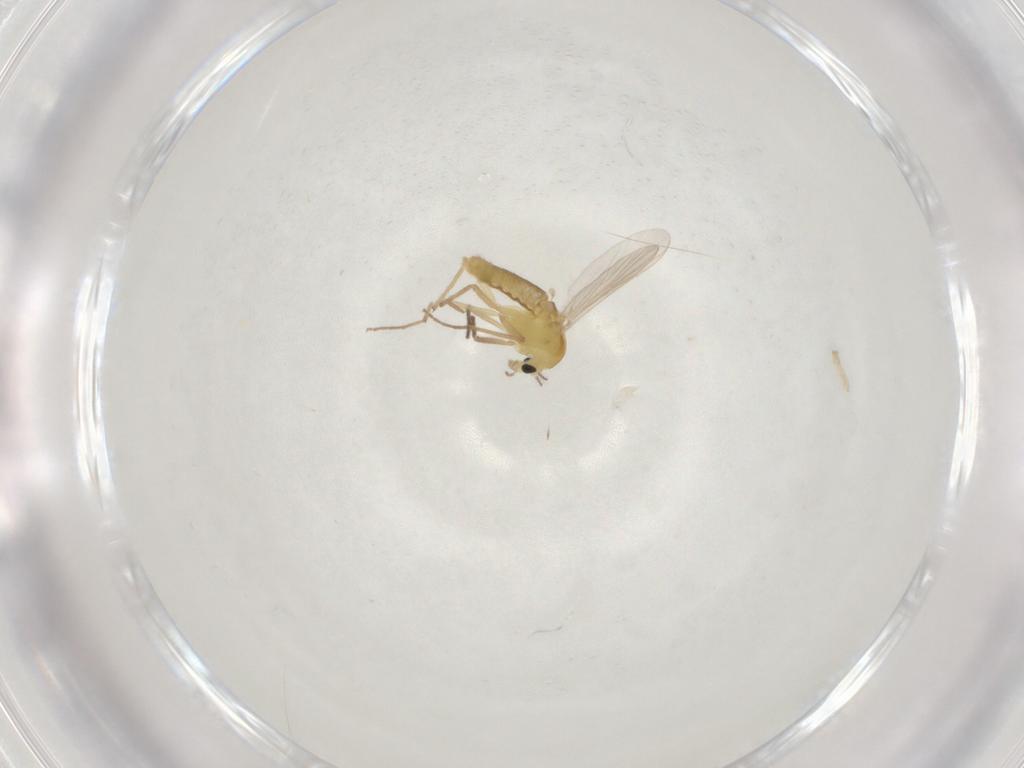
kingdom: Animalia
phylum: Arthropoda
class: Insecta
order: Diptera
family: Chironomidae
